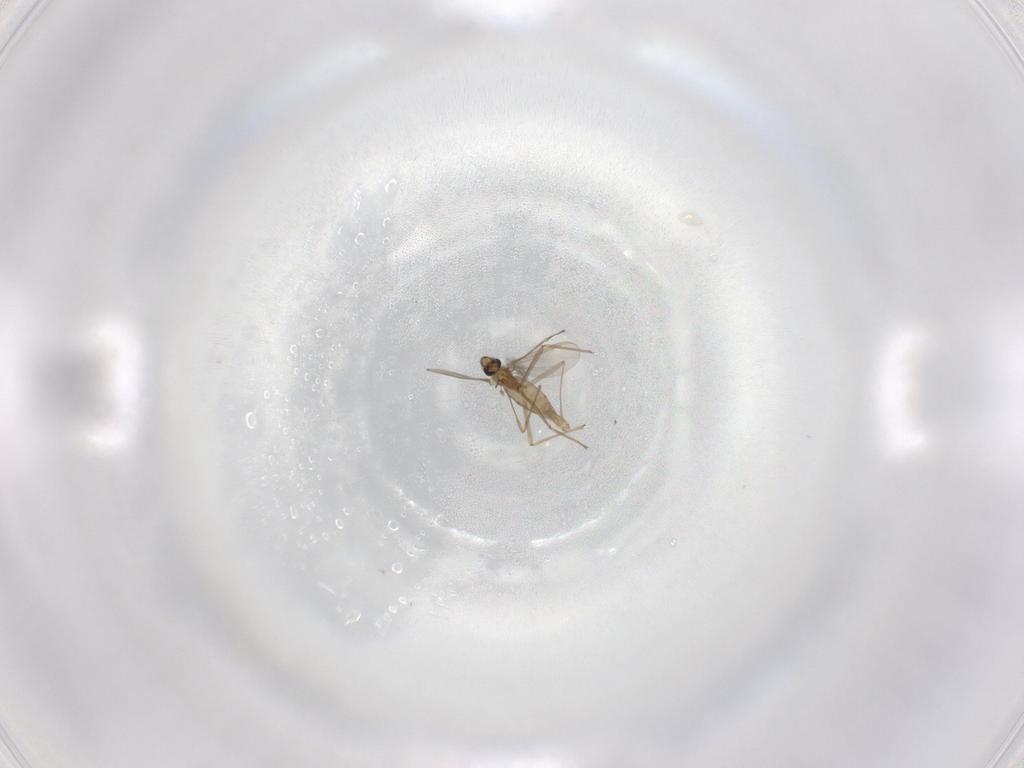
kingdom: Animalia
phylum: Arthropoda
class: Insecta
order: Diptera
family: Chironomidae
